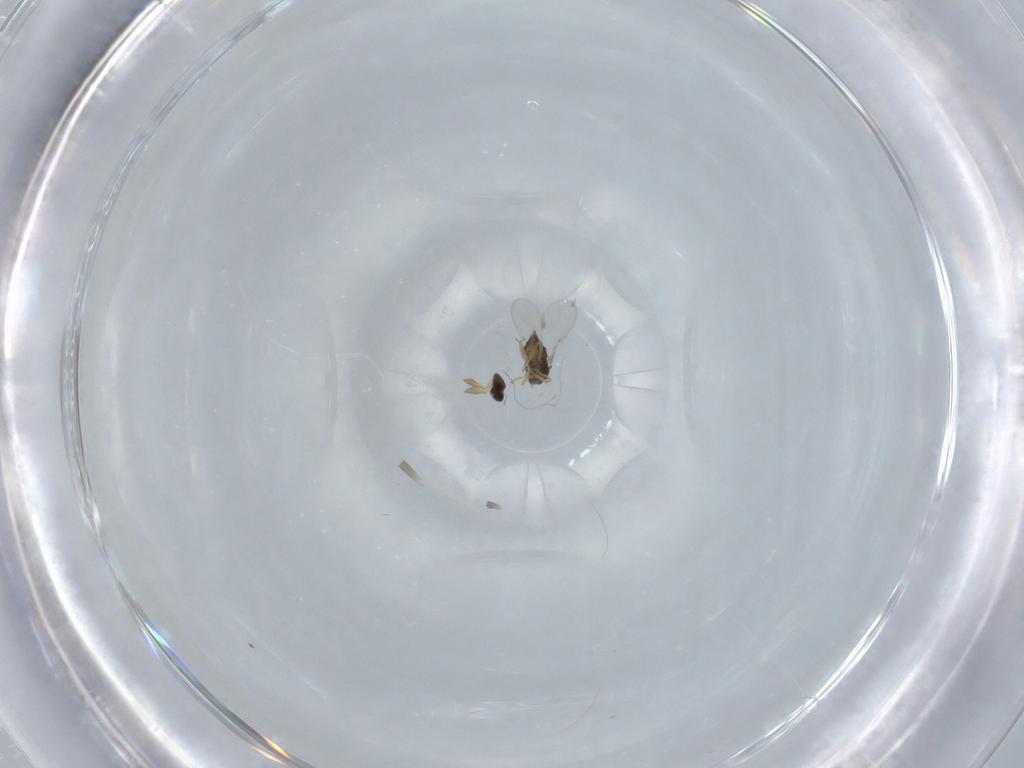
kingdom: Animalia
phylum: Arthropoda
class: Insecta
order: Hymenoptera
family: Encyrtidae
